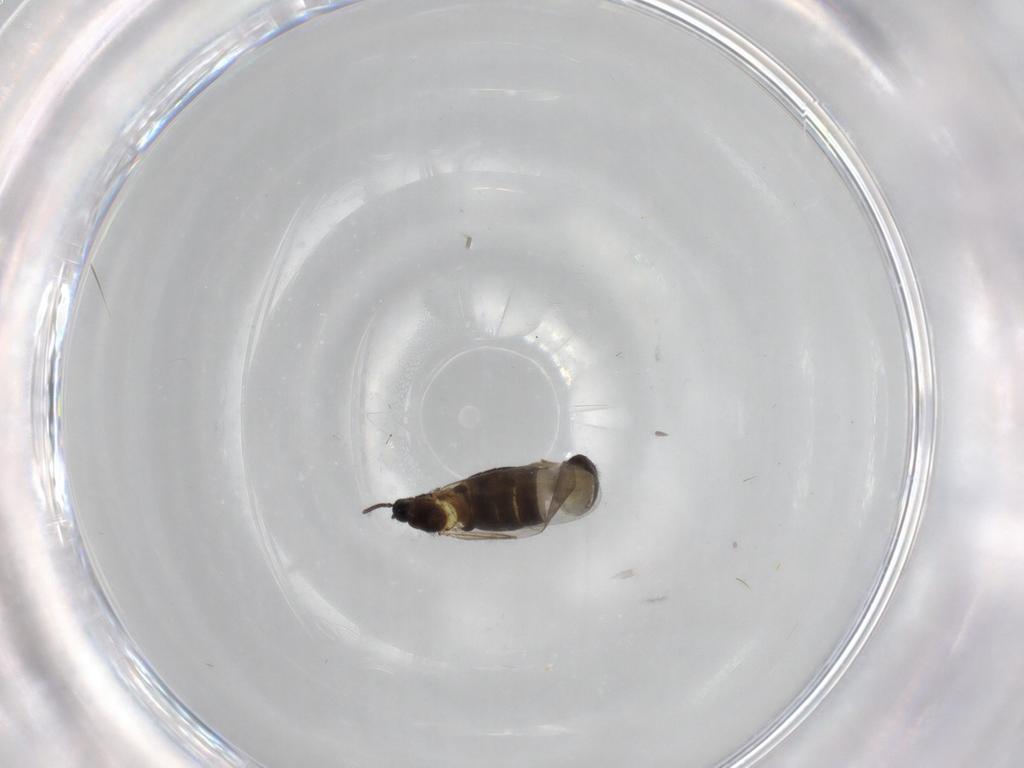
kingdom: Animalia
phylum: Arthropoda
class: Insecta
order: Diptera
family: Scatopsidae
